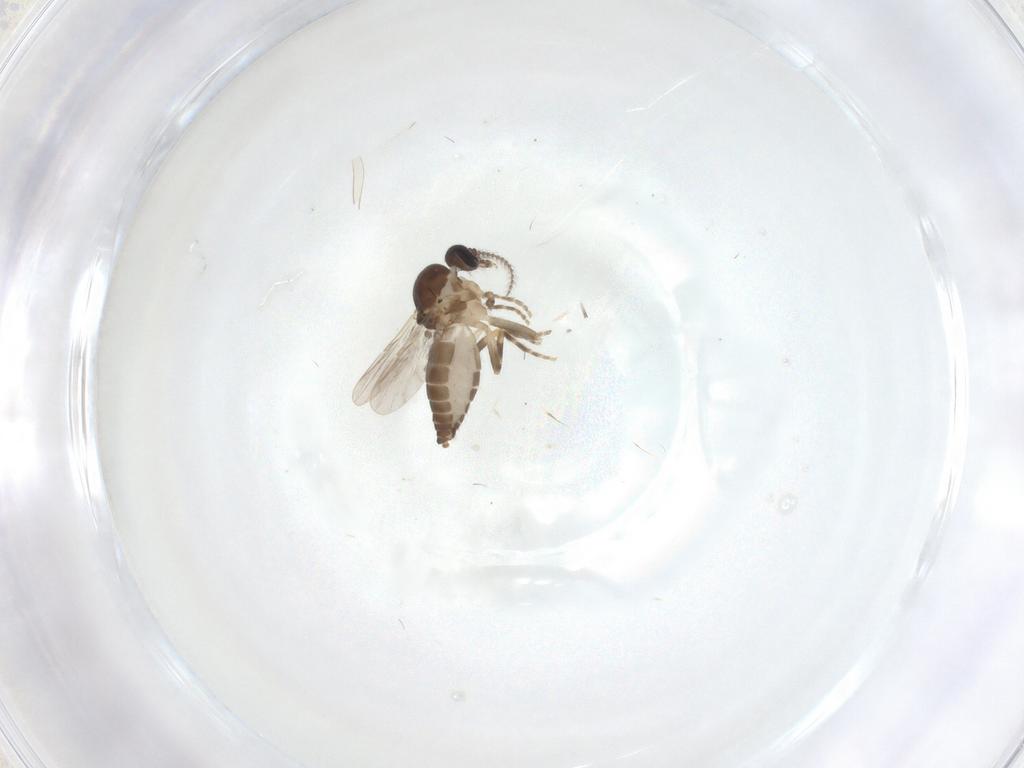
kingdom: Animalia
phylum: Arthropoda
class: Insecta
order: Diptera
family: Ceratopogonidae
